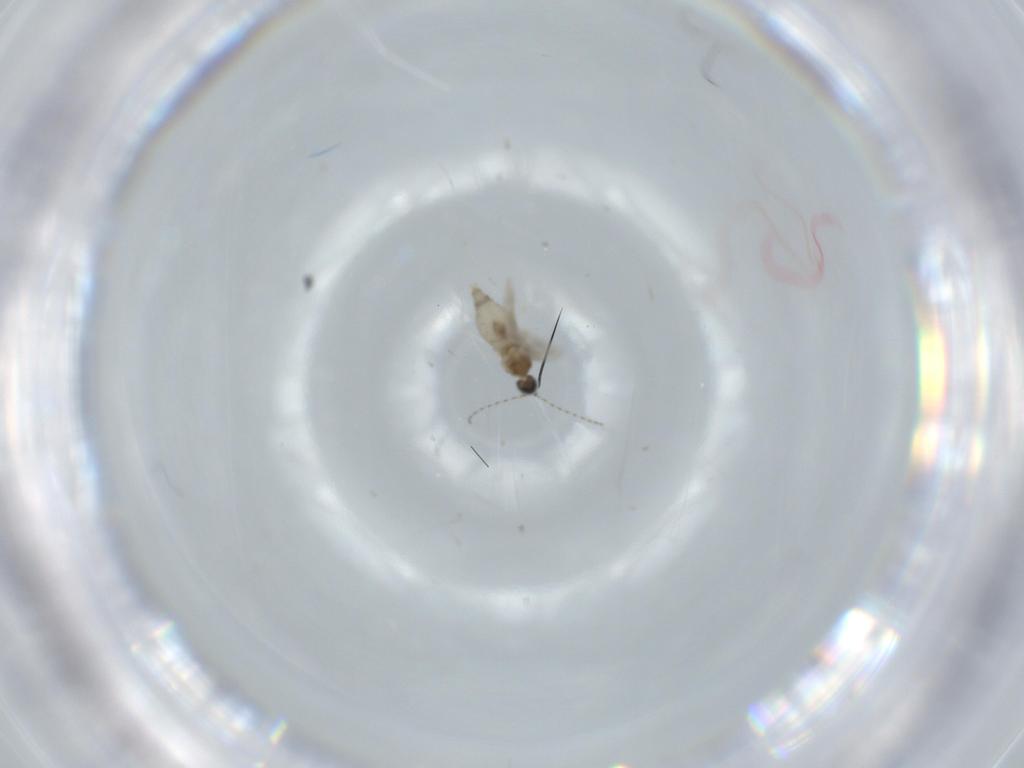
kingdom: Animalia
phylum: Arthropoda
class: Insecta
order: Diptera
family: Cecidomyiidae
